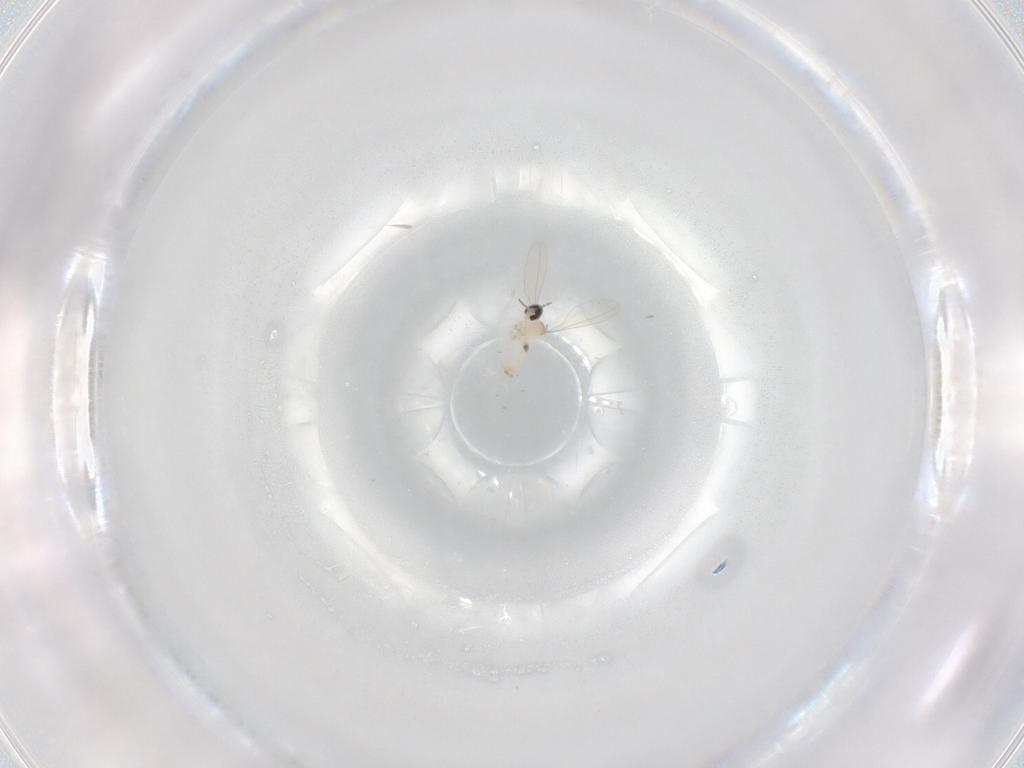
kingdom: Animalia
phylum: Arthropoda
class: Insecta
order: Diptera
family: Cecidomyiidae
